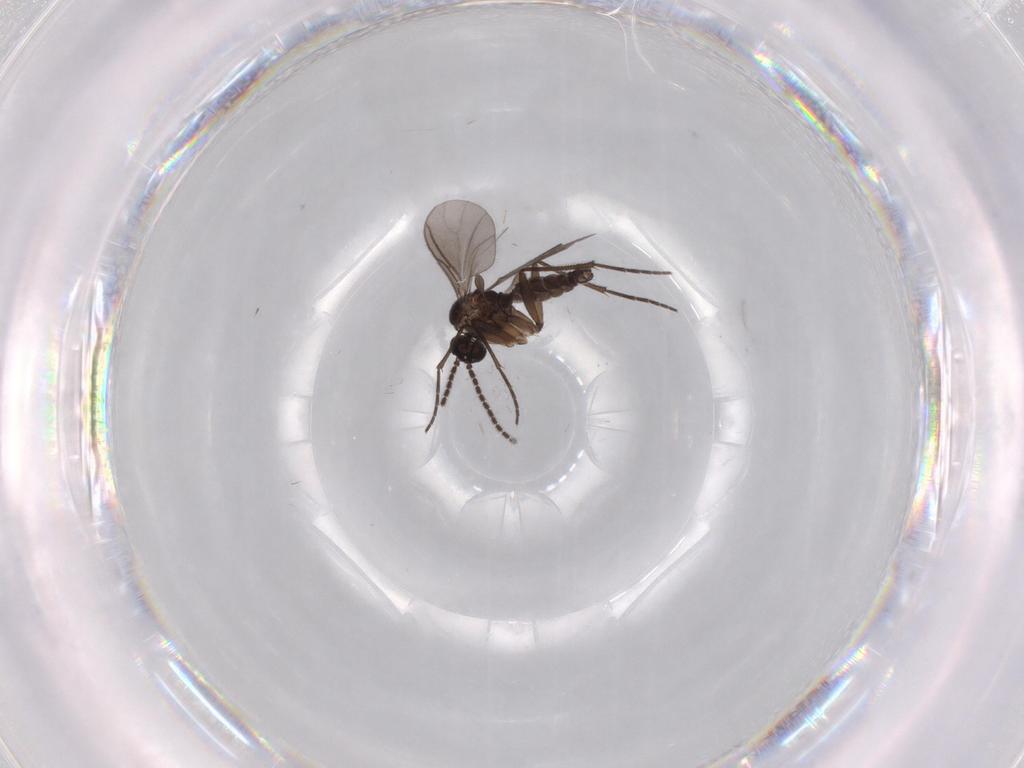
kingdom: Animalia
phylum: Arthropoda
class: Insecta
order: Diptera
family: Sciaridae
